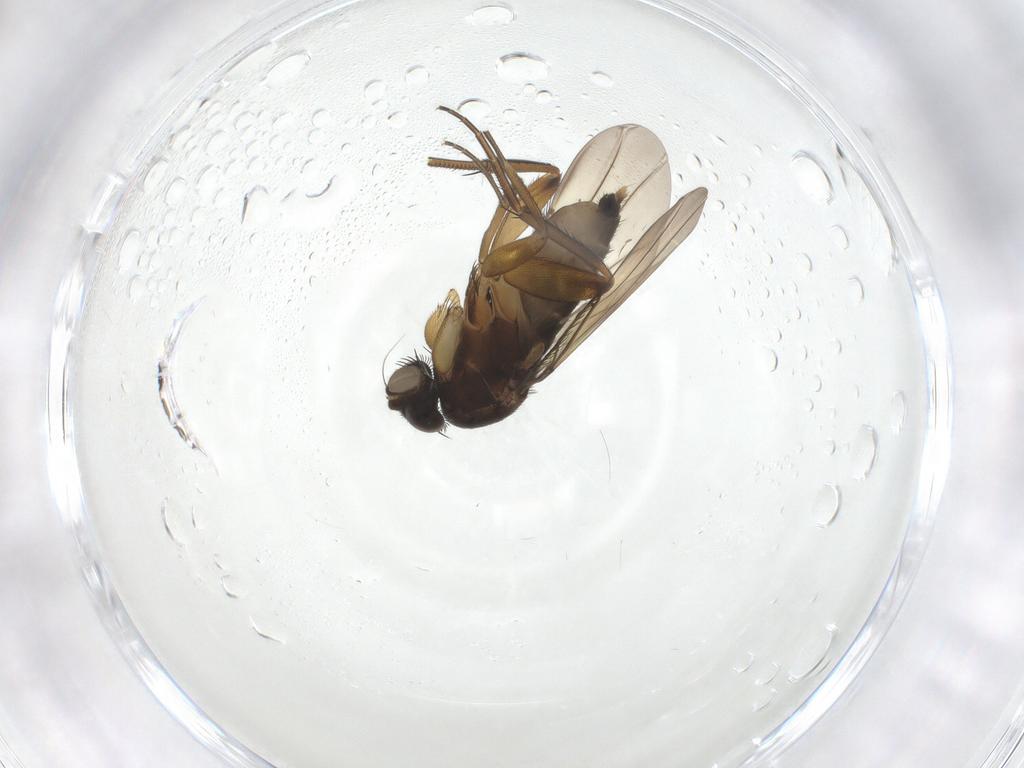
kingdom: Animalia
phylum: Arthropoda
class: Insecta
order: Diptera
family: Phoridae
